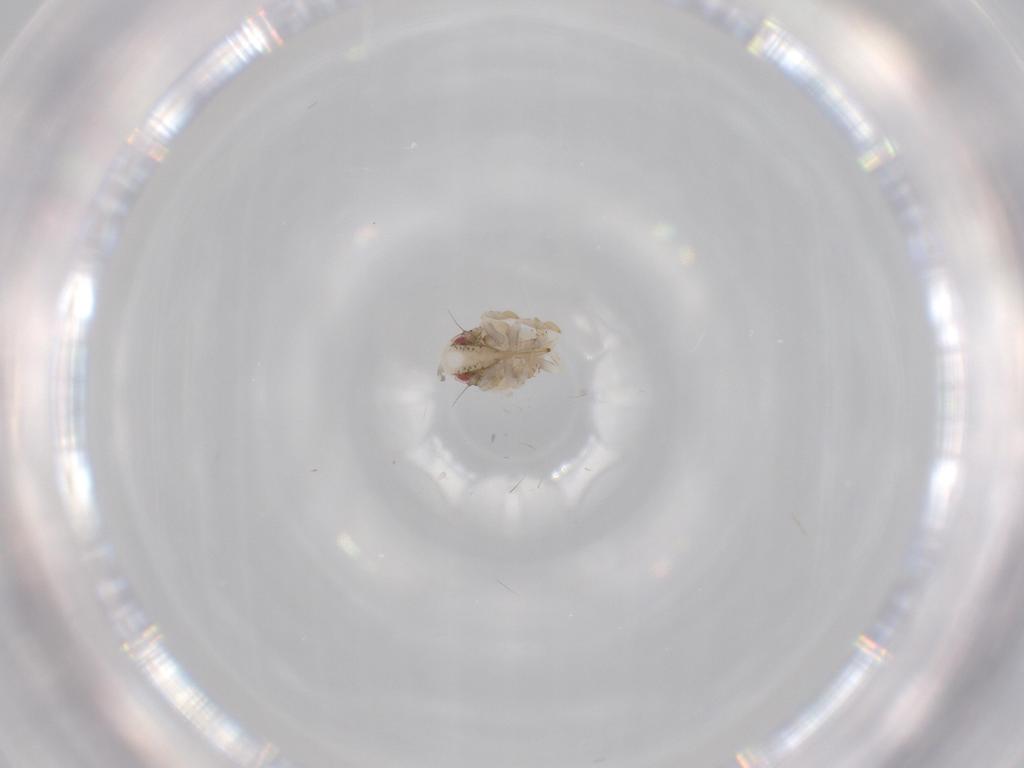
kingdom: Animalia
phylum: Arthropoda
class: Insecta
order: Hemiptera
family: Acanaloniidae
